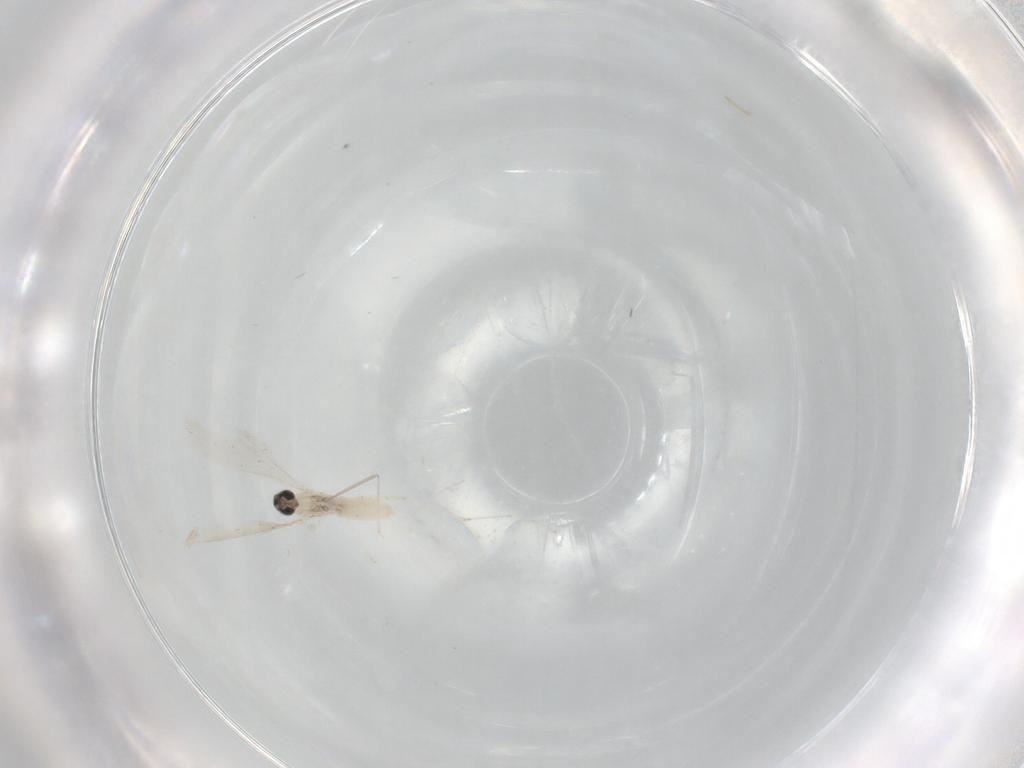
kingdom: Animalia
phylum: Arthropoda
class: Insecta
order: Diptera
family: Cecidomyiidae
